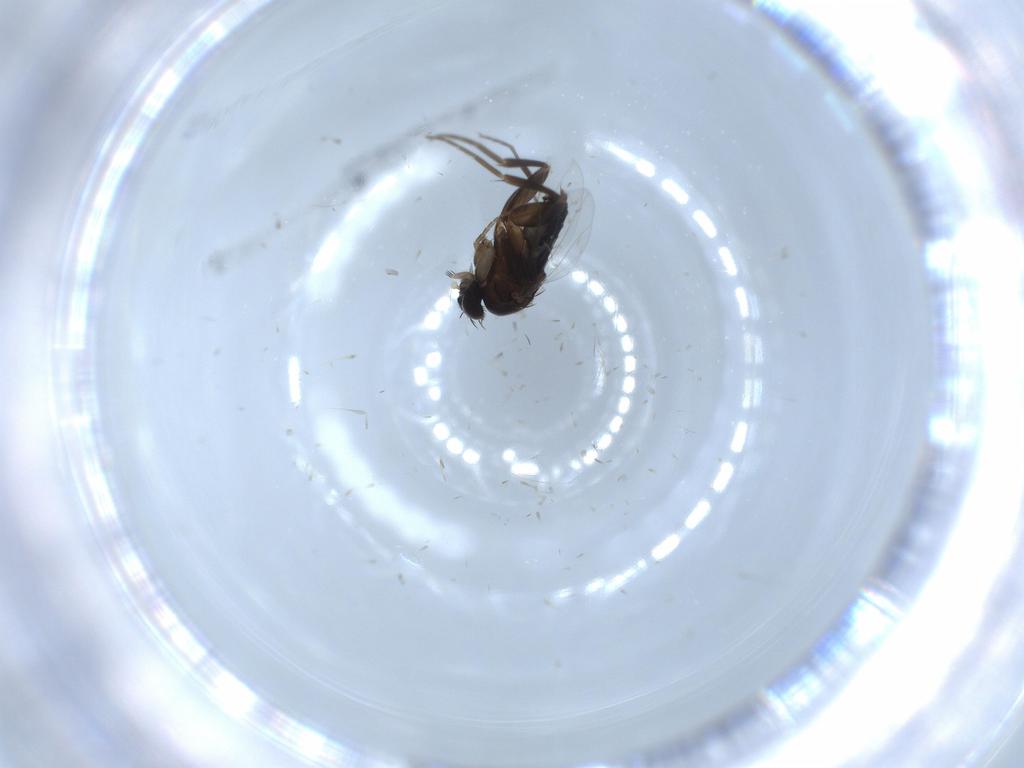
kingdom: Animalia
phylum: Arthropoda
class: Insecta
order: Diptera
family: Phoridae
